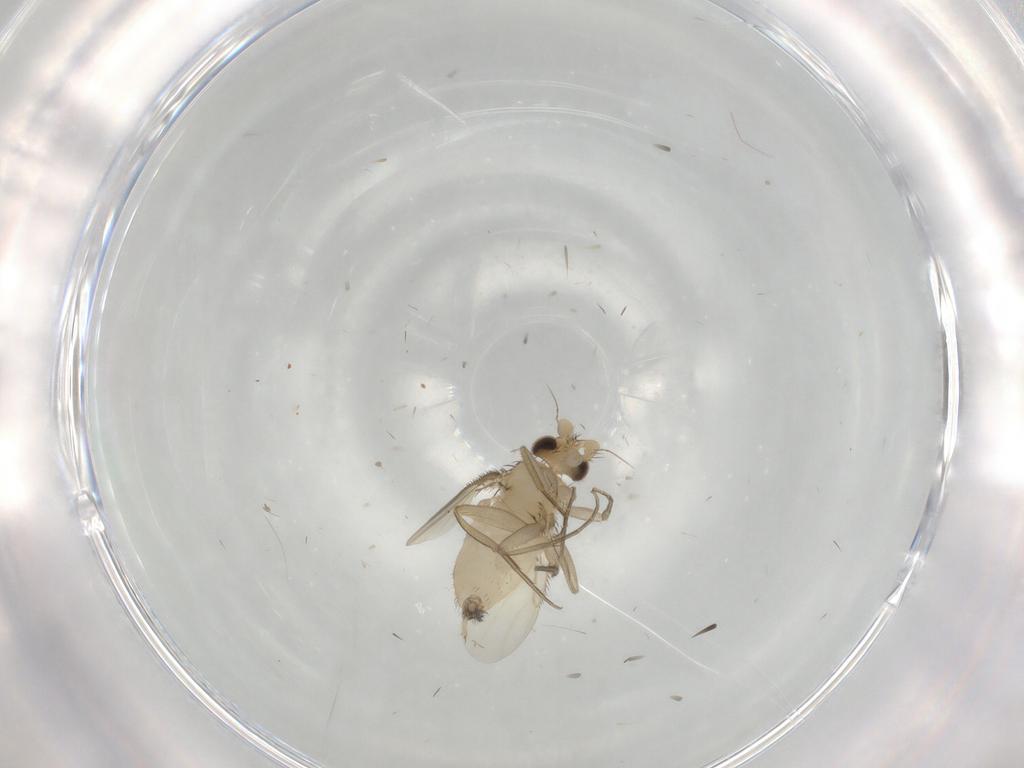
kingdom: Animalia
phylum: Arthropoda
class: Insecta
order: Diptera
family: Phoridae
